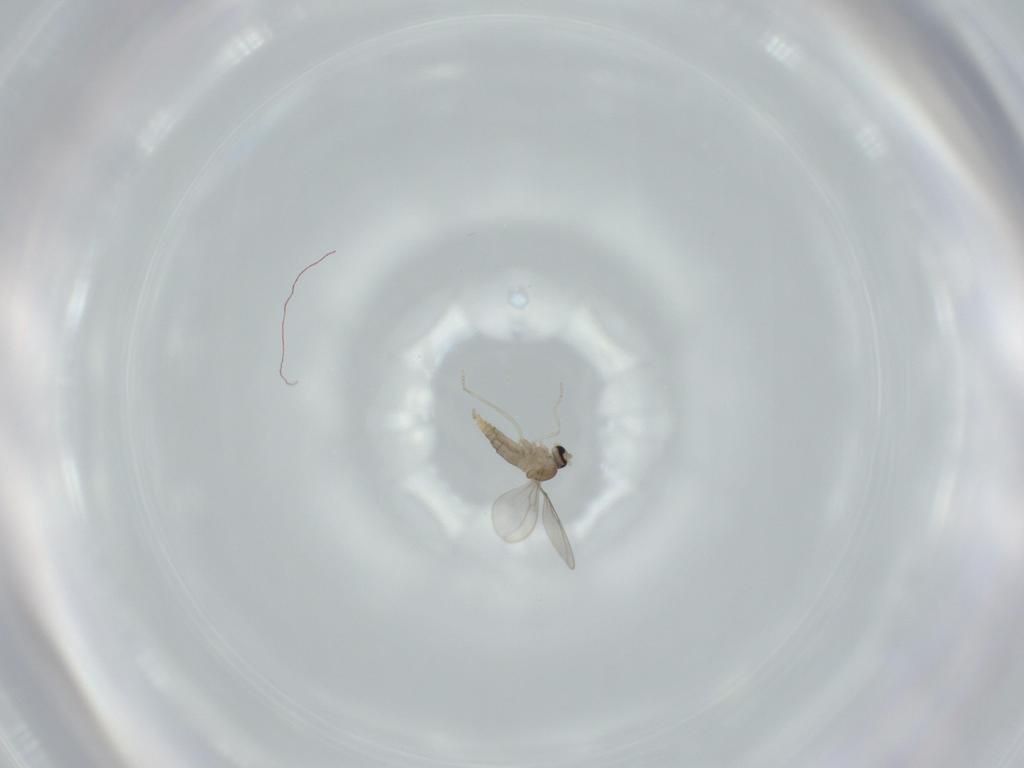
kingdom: Animalia
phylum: Arthropoda
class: Insecta
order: Diptera
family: Cecidomyiidae
